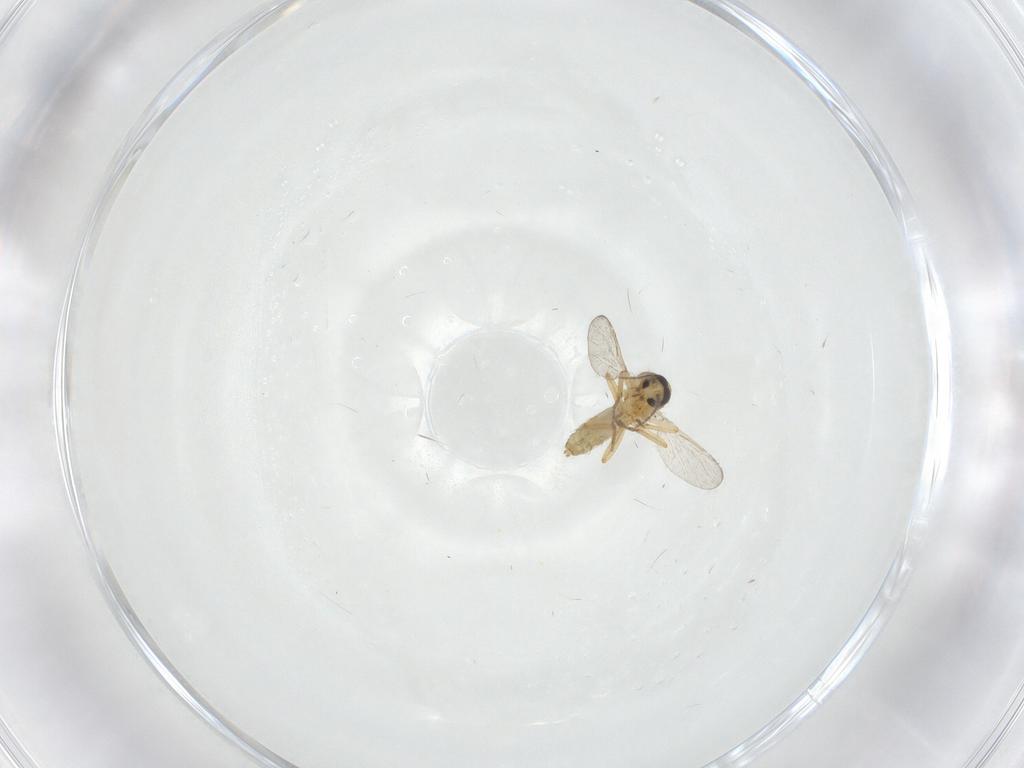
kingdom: Animalia
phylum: Arthropoda
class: Insecta
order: Diptera
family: Ceratopogonidae
